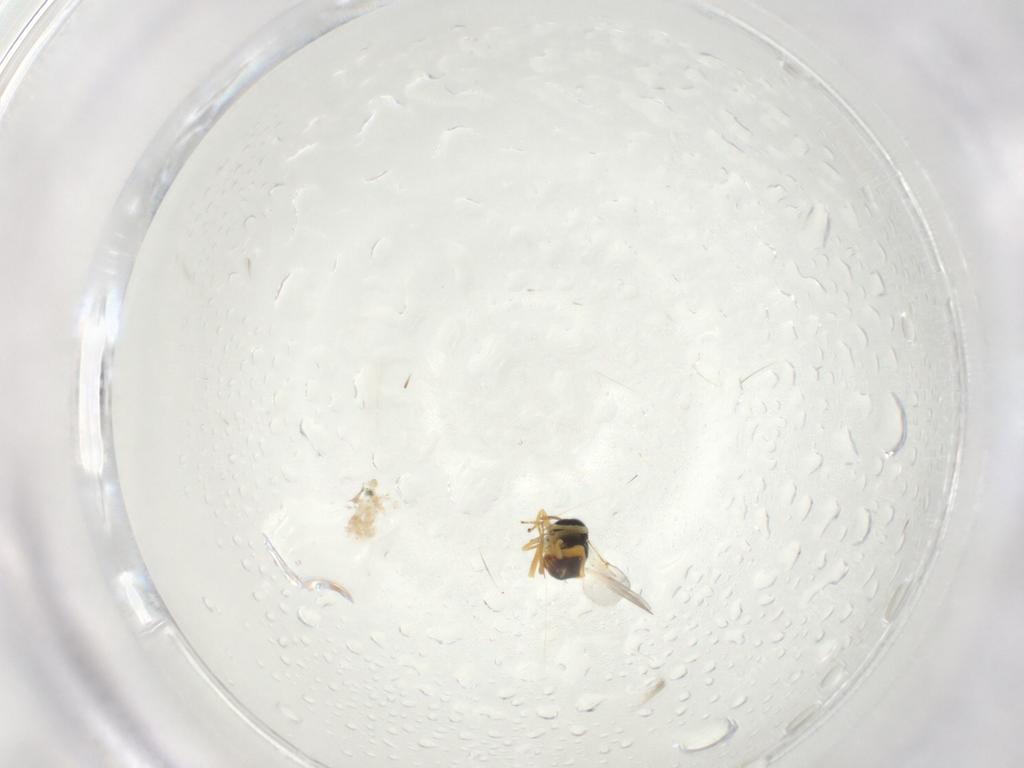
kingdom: Animalia
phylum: Arthropoda
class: Insecta
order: Hymenoptera
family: Encyrtidae
